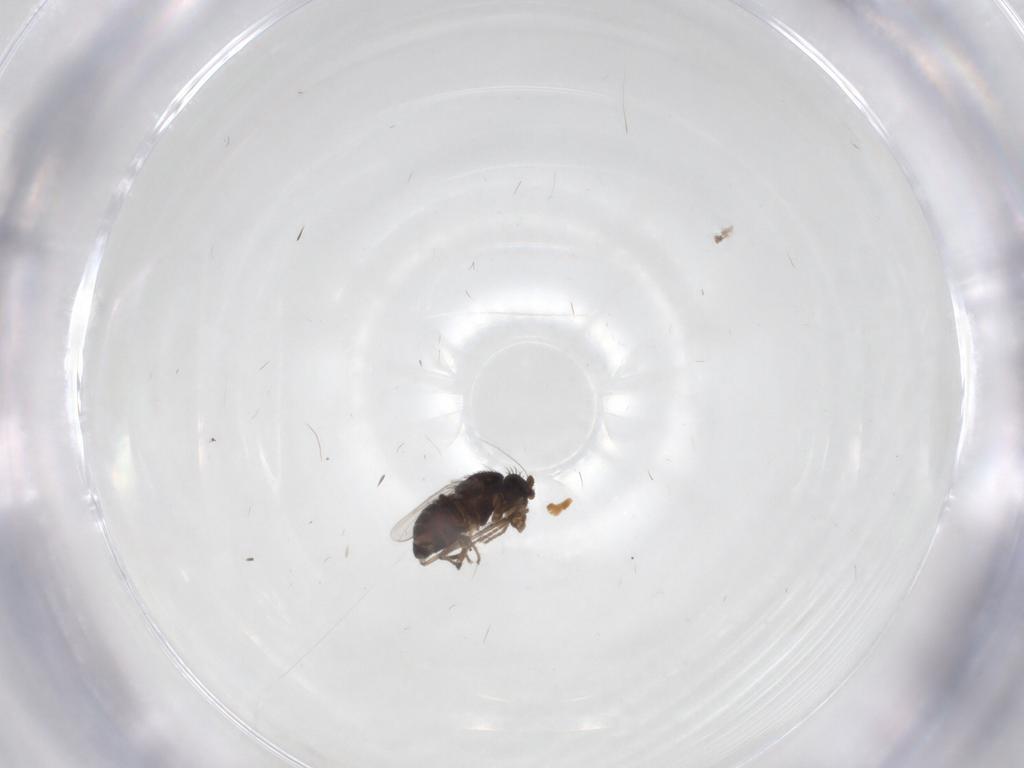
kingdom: Animalia
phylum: Arthropoda
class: Insecta
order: Diptera
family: Sphaeroceridae
